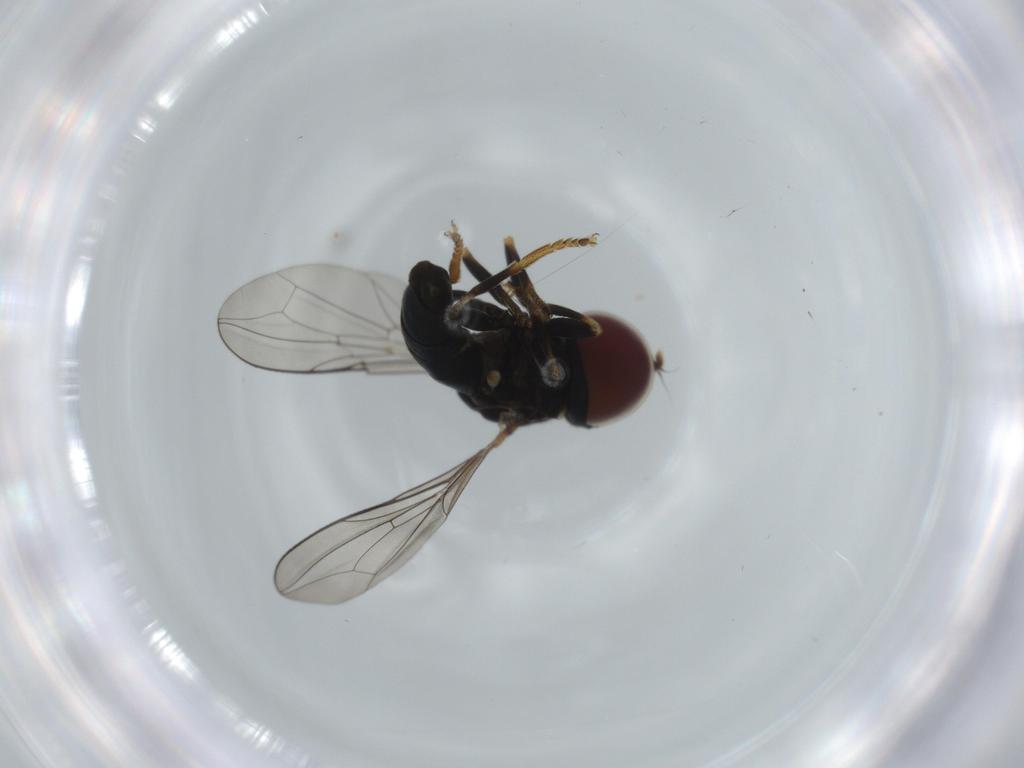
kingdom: Animalia
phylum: Arthropoda
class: Insecta
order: Diptera
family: Pipunculidae
